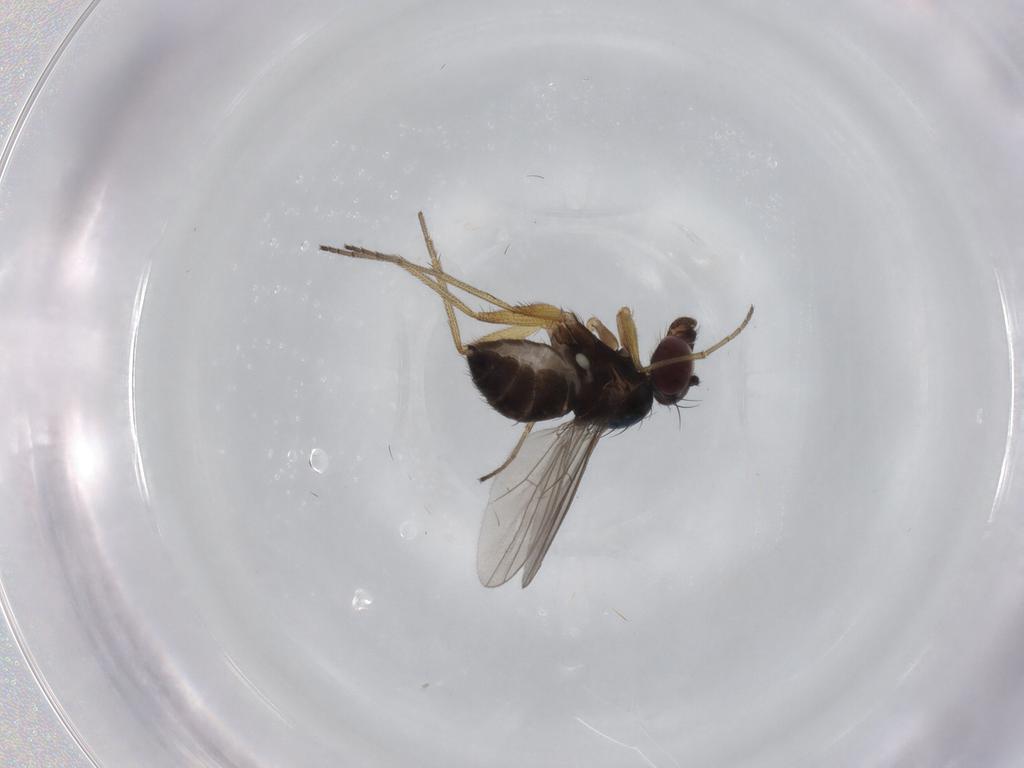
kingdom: Animalia
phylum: Arthropoda
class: Insecta
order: Diptera
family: Dolichopodidae
